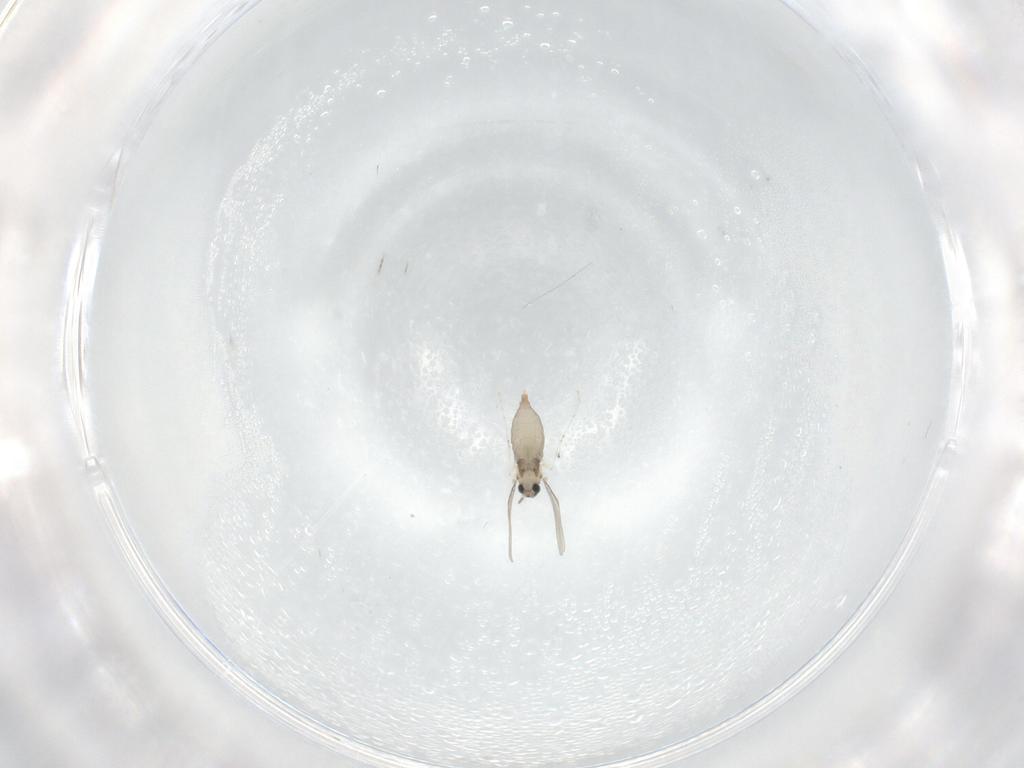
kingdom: Animalia
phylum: Arthropoda
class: Insecta
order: Diptera
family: Cecidomyiidae
